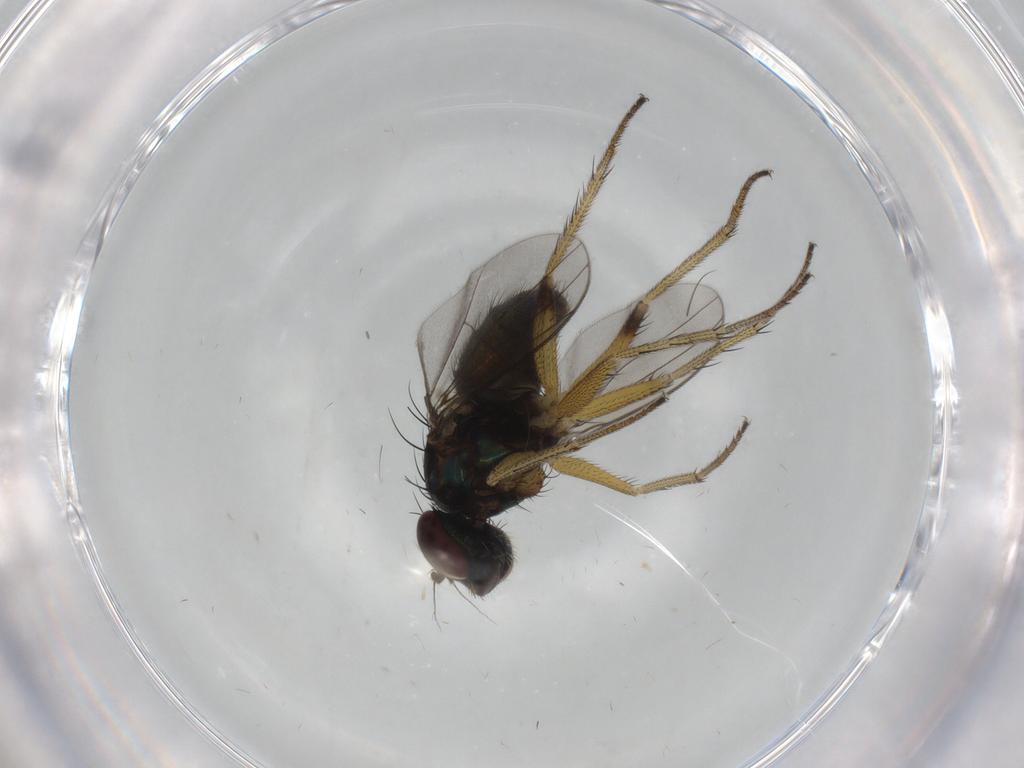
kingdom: Animalia
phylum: Arthropoda
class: Insecta
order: Diptera
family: Dolichopodidae
